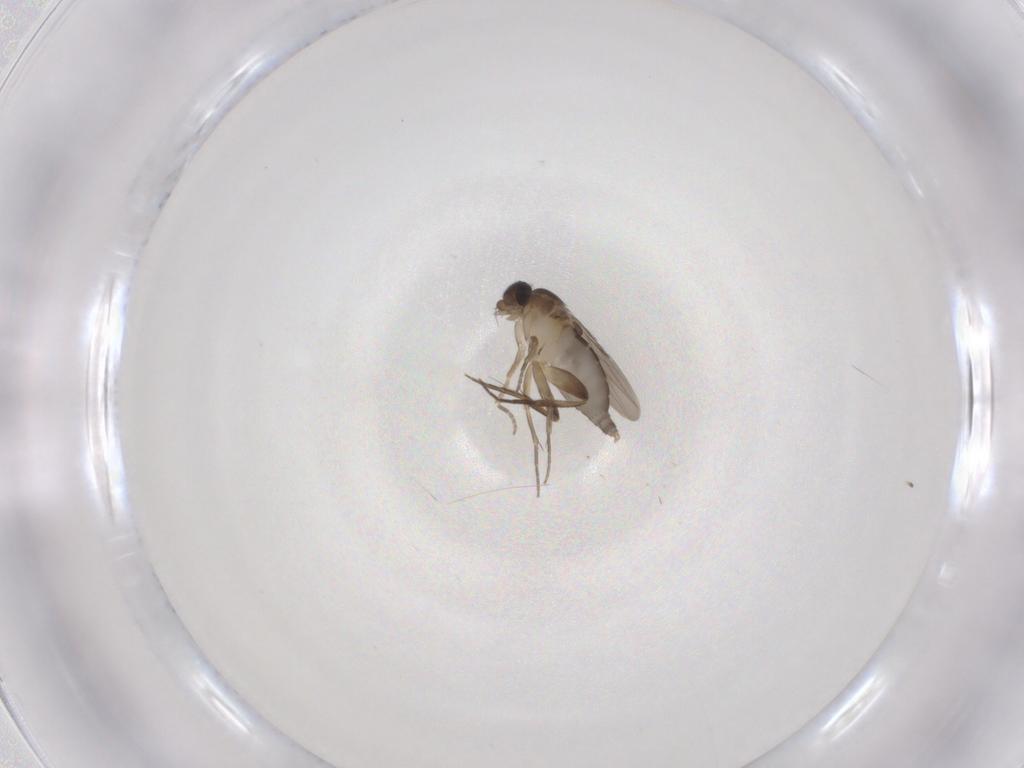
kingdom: Animalia
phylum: Arthropoda
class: Insecta
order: Diptera
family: Phoridae
